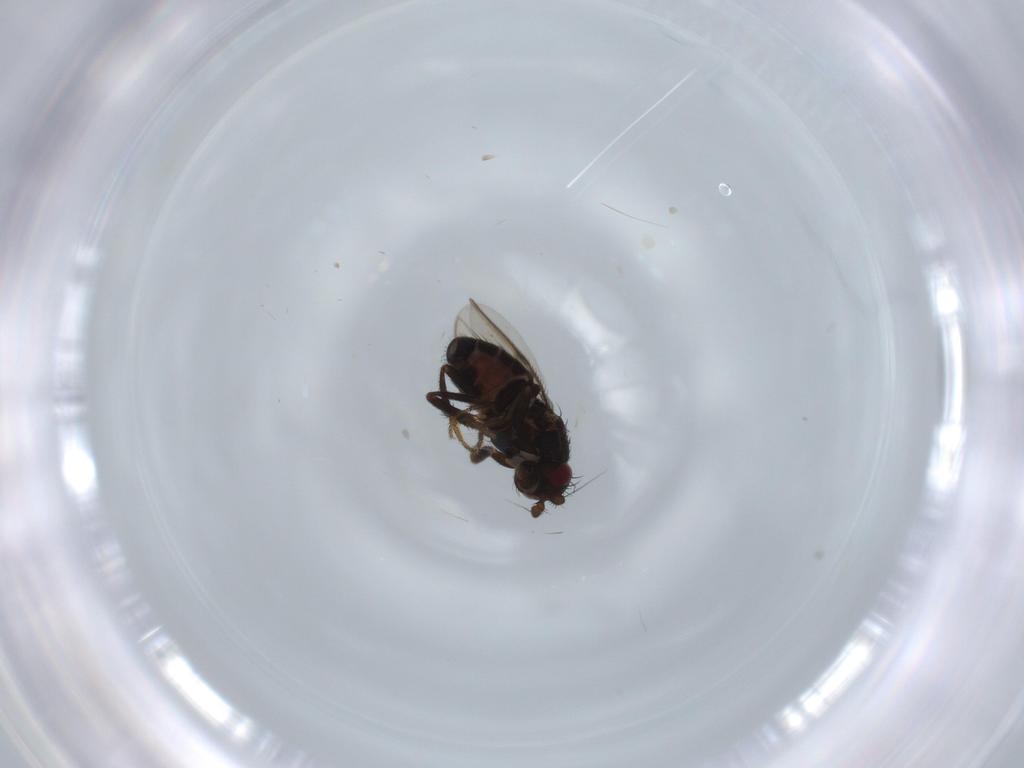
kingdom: Animalia
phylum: Arthropoda
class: Insecta
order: Diptera
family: Sphaeroceridae
